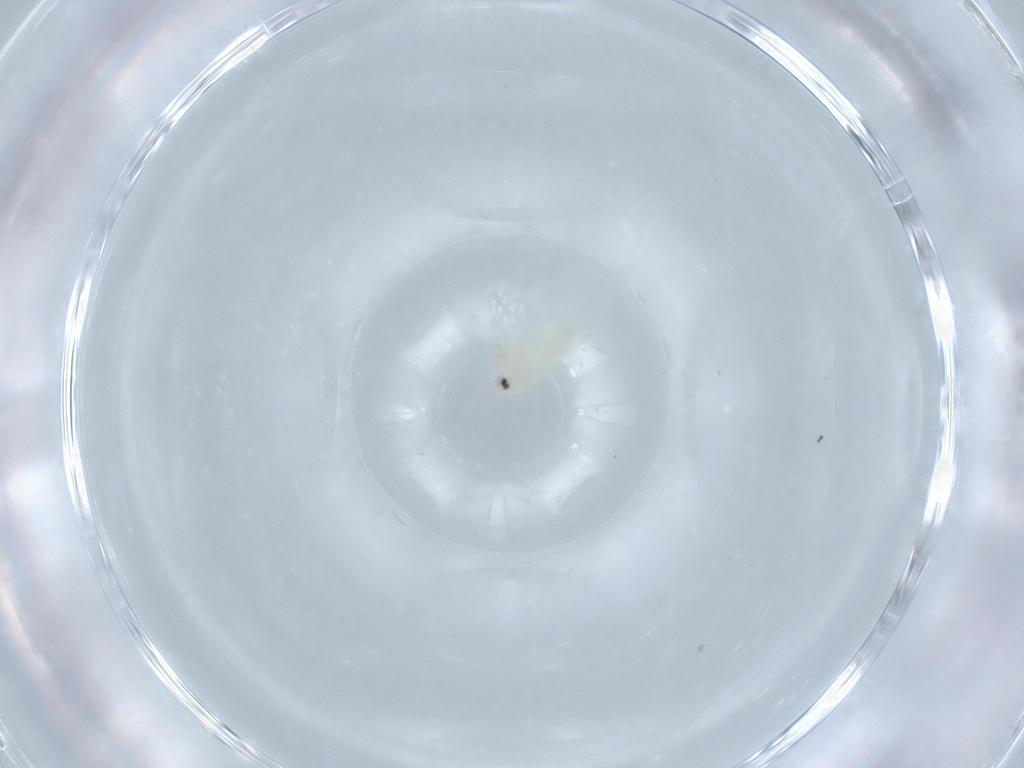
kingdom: Animalia
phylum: Arthropoda
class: Insecta
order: Hemiptera
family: Aleyrodidae
